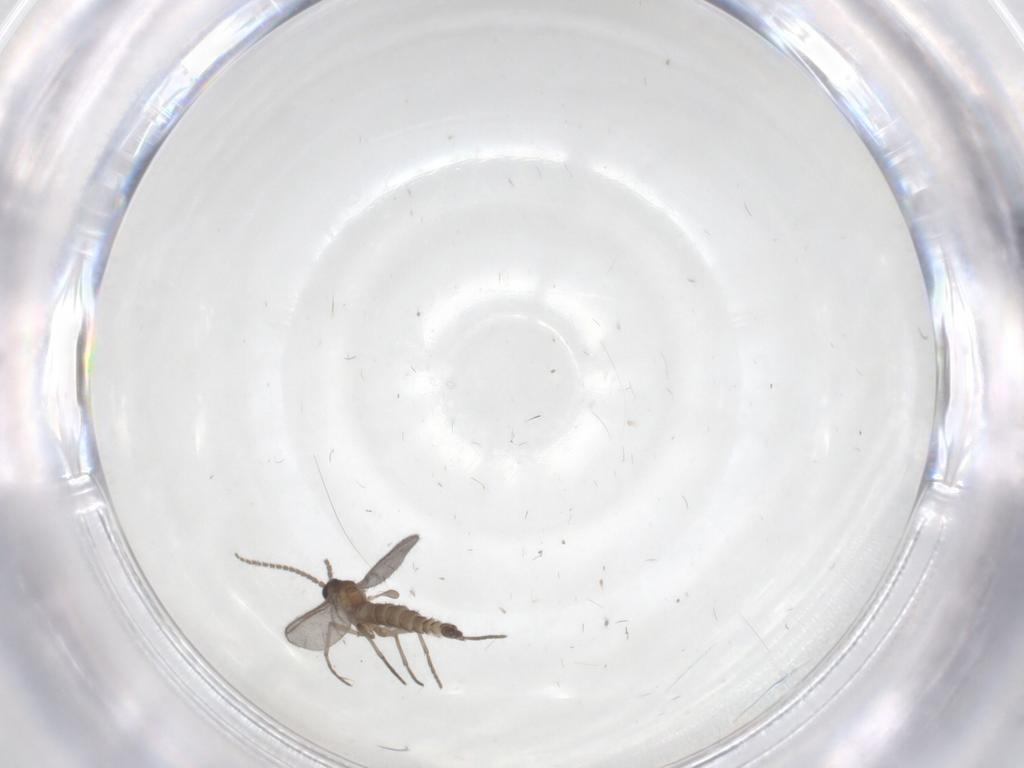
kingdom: Animalia
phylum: Arthropoda
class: Insecta
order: Diptera
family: Sciaridae
